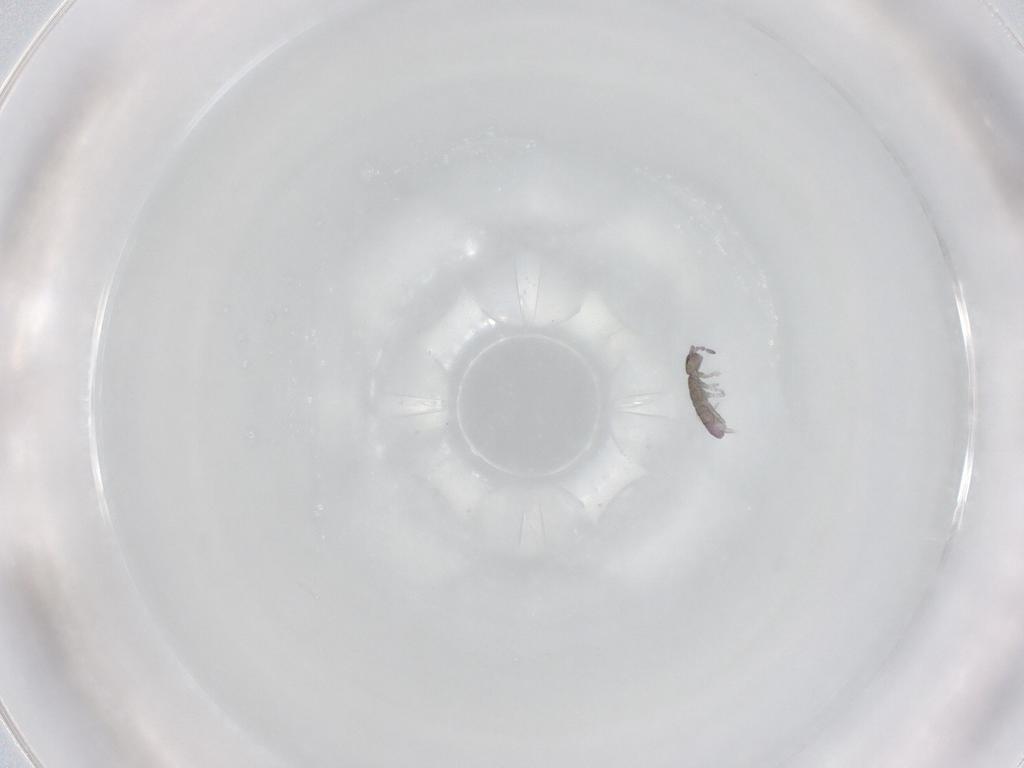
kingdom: Animalia
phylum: Arthropoda
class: Collembola
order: Entomobryomorpha
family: Isotomidae
